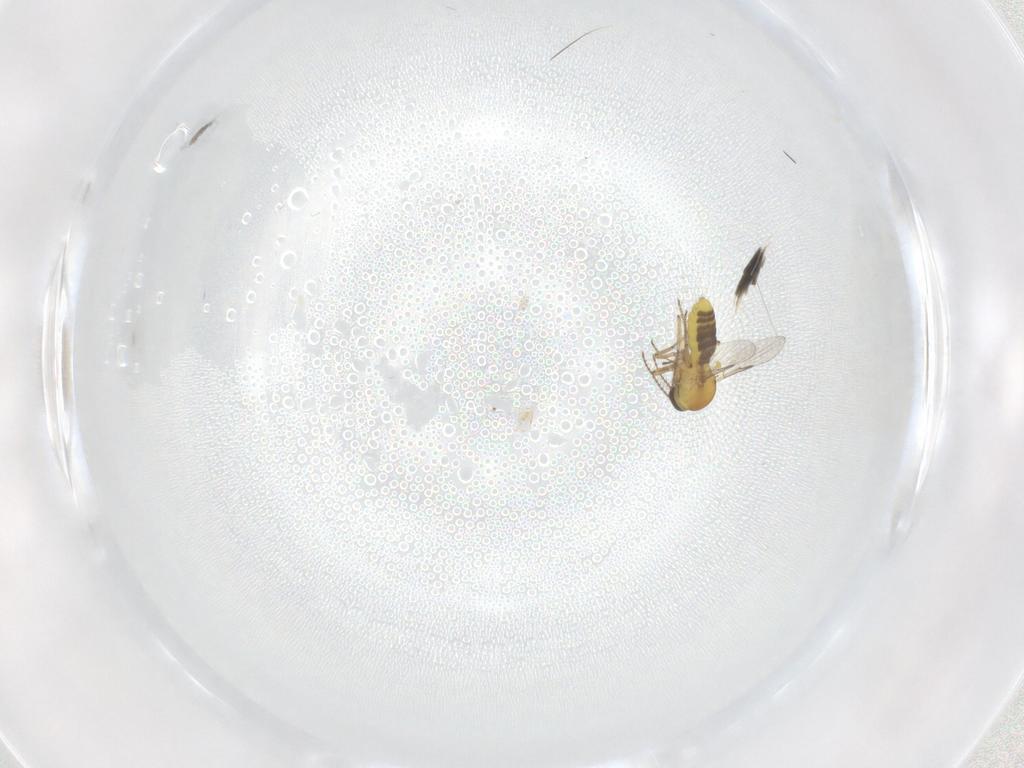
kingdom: Animalia
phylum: Arthropoda
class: Insecta
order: Diptera
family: Ceratopogonidae
